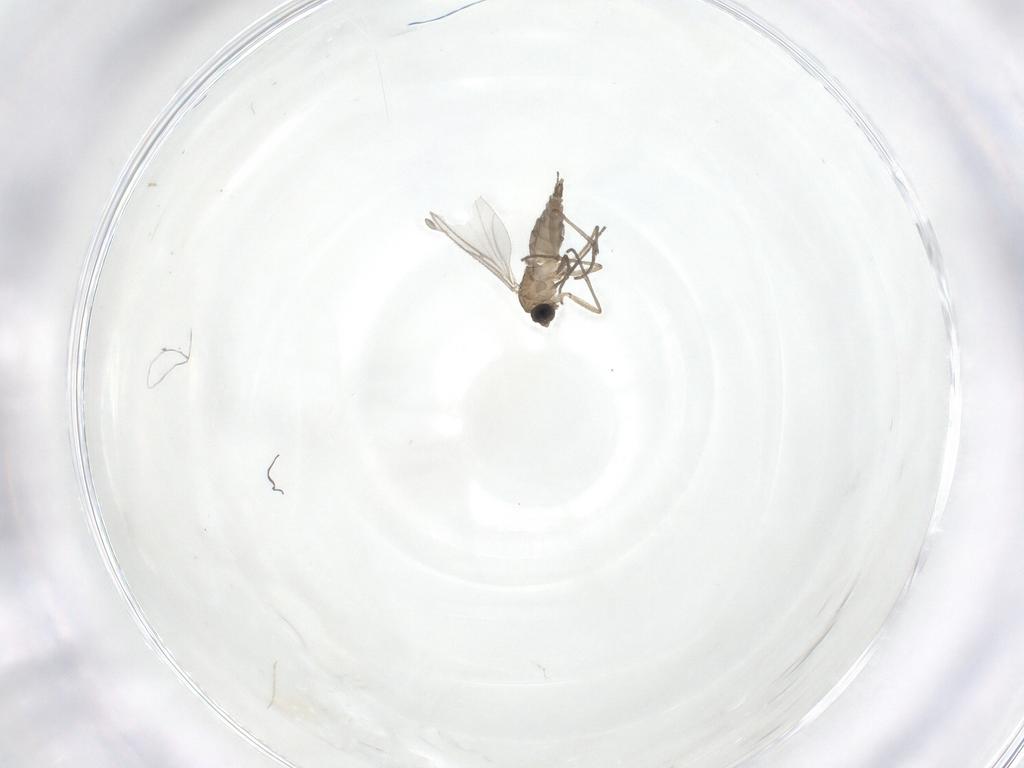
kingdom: Animalia
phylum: Arthropoda
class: Insecta
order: Diptera
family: Sciaridae
